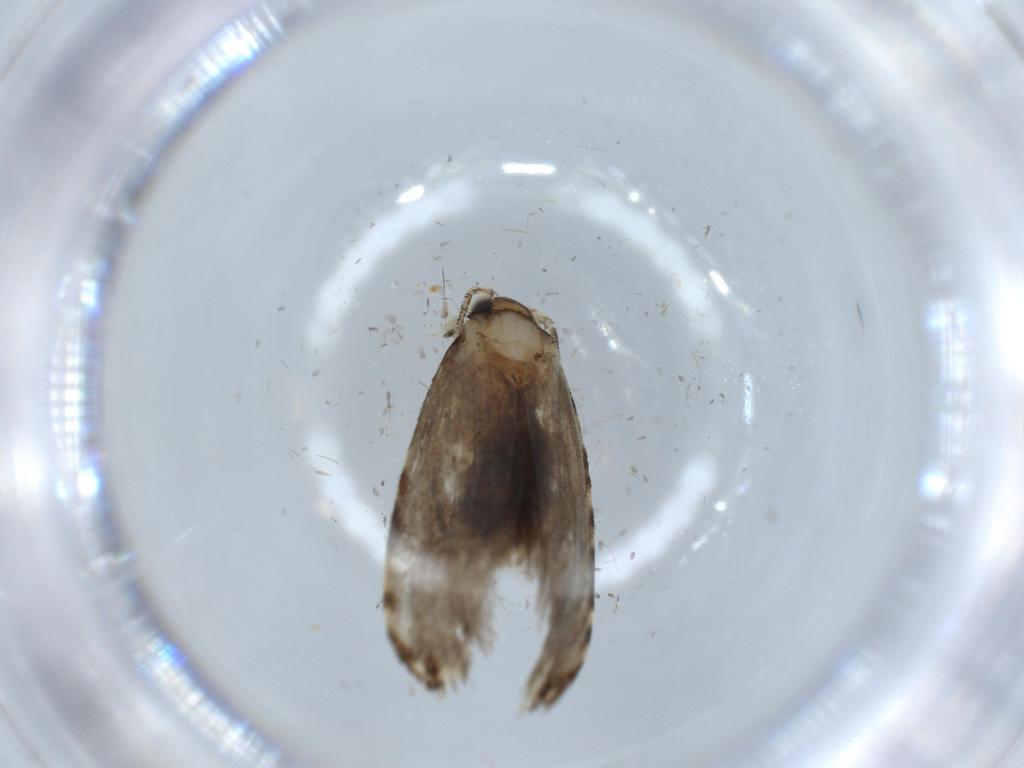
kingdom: Animalia
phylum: Arthropoda
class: Insecta
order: Lepidoptera
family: Tineidae
